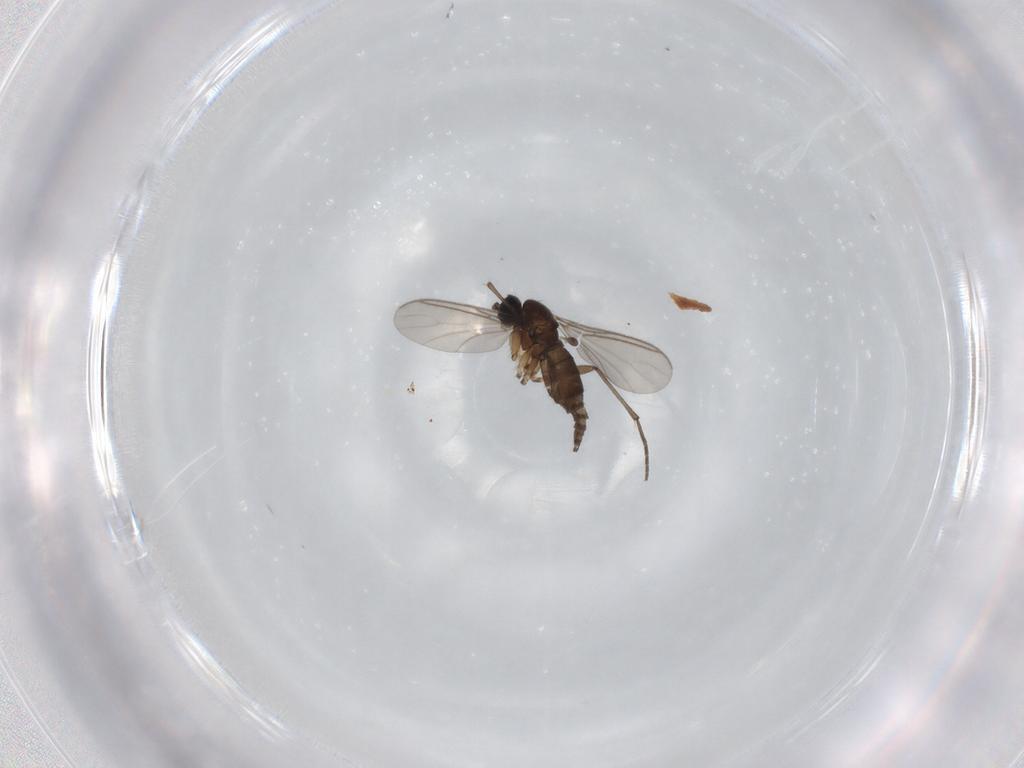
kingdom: Animalia
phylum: Arthropoda
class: Insecta
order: Diptera
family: Sciaridae
